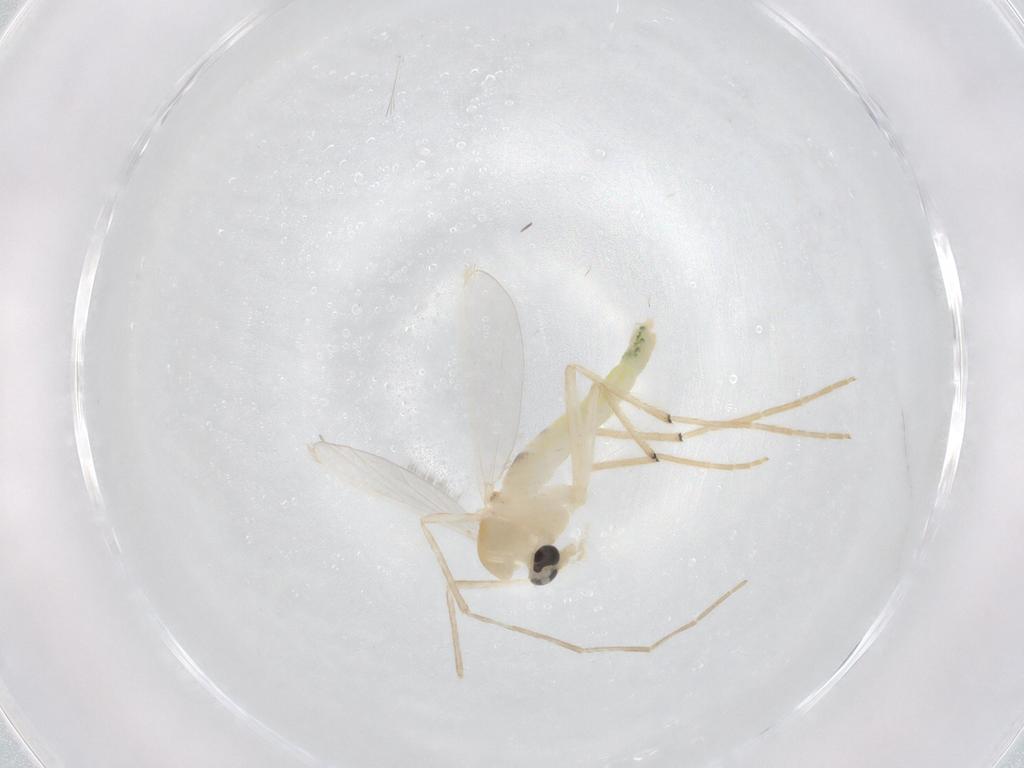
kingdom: Animalia
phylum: Arthropoda
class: Insecta
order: Diptera
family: Chironomidae
